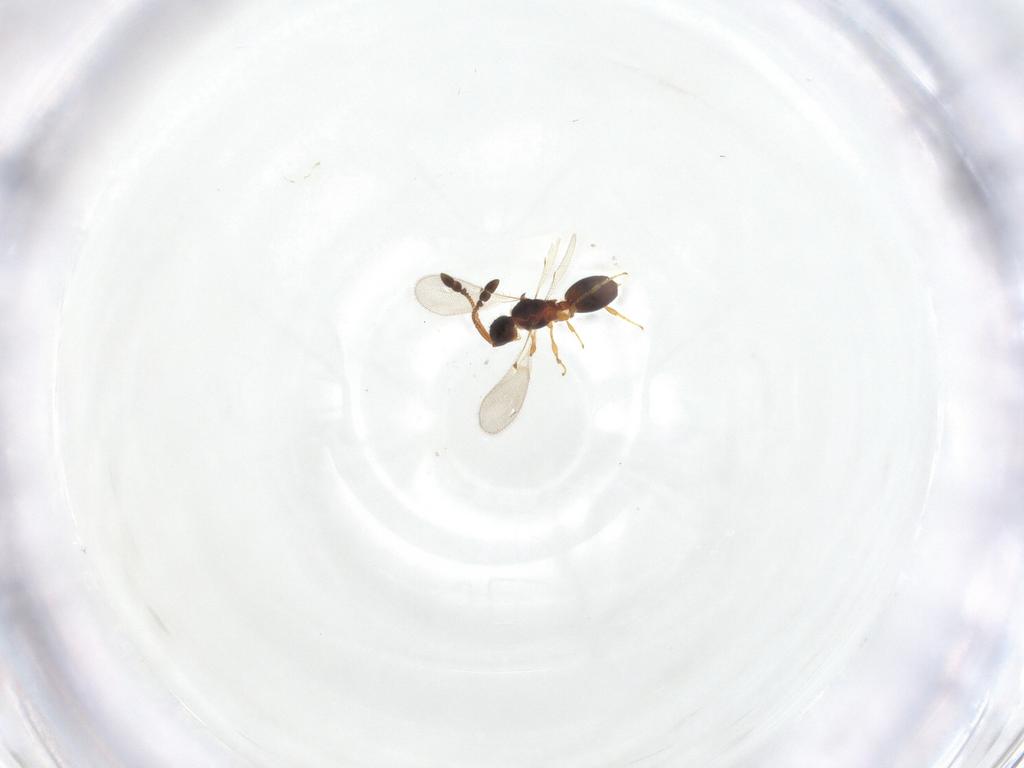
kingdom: Animalia
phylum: Arthropoda
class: Insecta
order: Hymenoptera
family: Diapriidae
